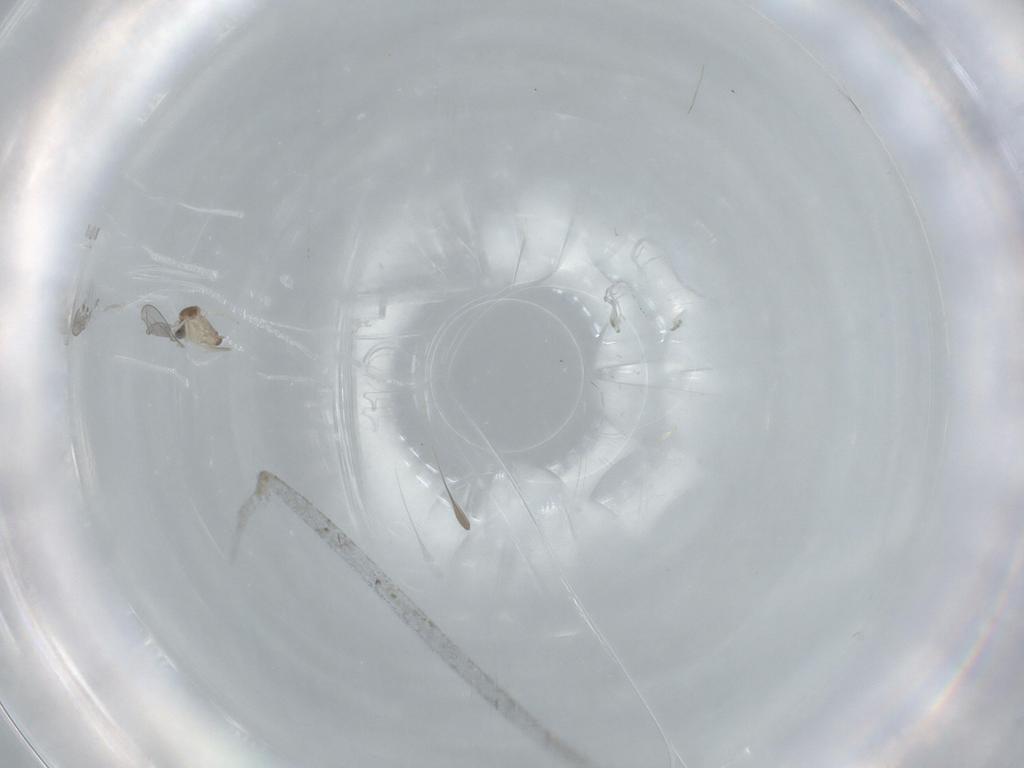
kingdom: Animalia
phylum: Arthropoda
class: Insecta
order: Diptera
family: Cecidomyiidae
